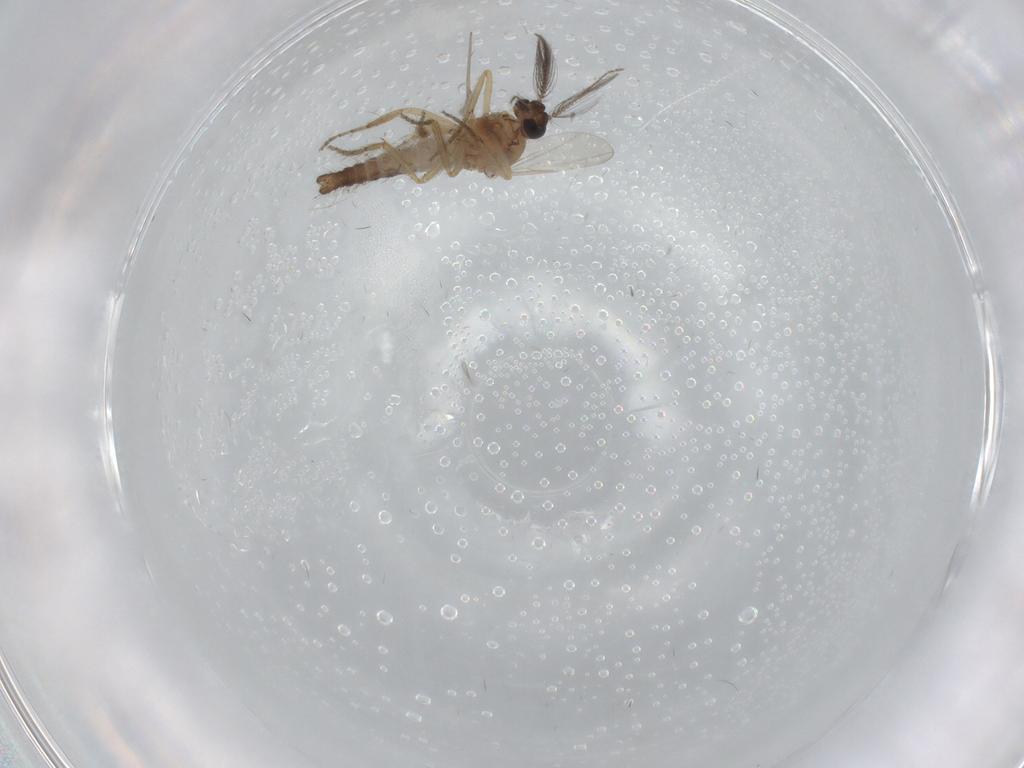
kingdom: Animalia
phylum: Arthropoda
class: Insecta
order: Diptera
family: Ceratopogonidae
